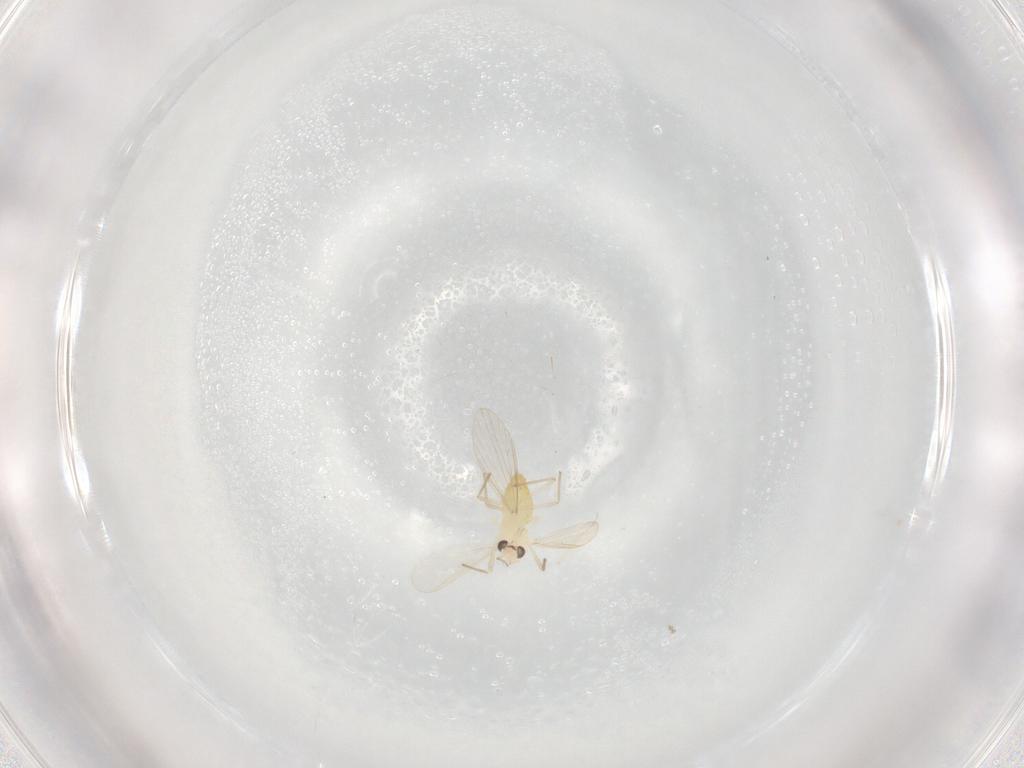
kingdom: Animalia
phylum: Arthropoda
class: Insecta
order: Diptera
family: Chironomidae
